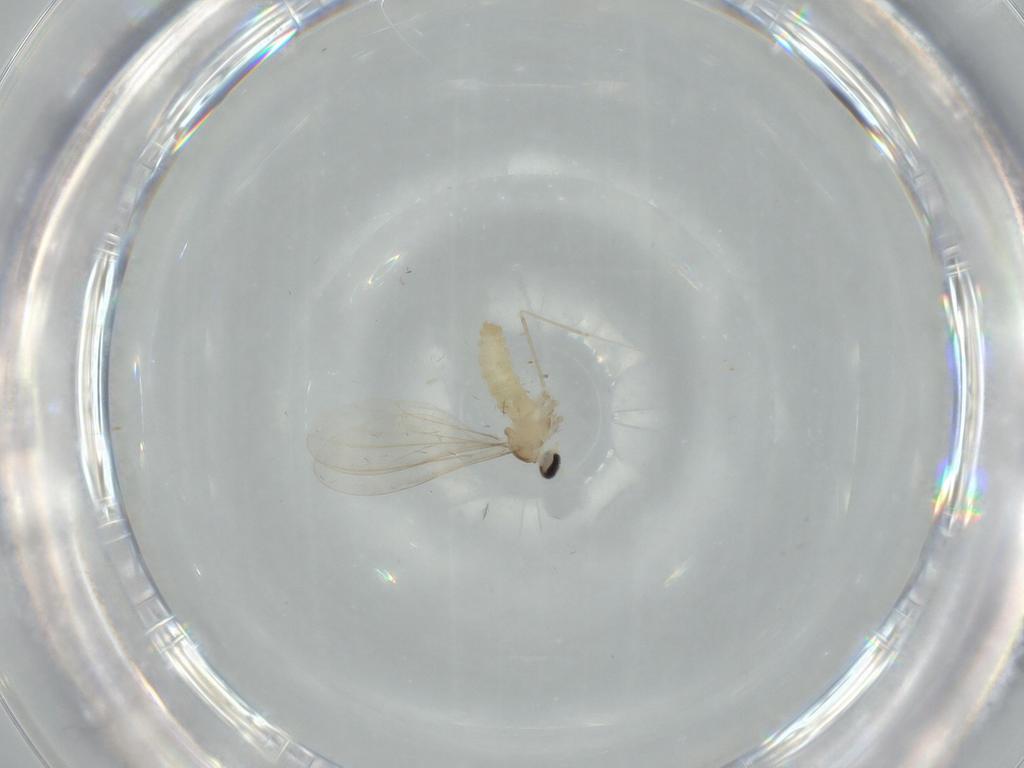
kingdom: Animalia
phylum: Arthropoda
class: Insecta
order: Diptera
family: Cecidomyiidae
